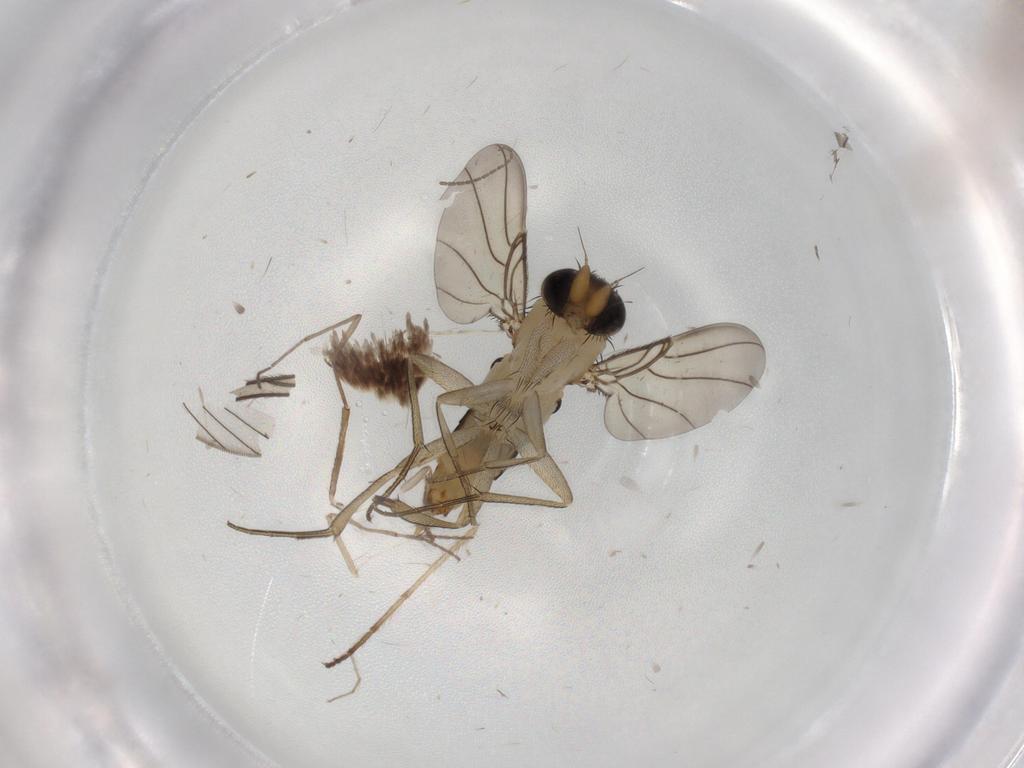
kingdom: Animalia
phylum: Arthropoda
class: Insecta
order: Diptera
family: Psychodidae
